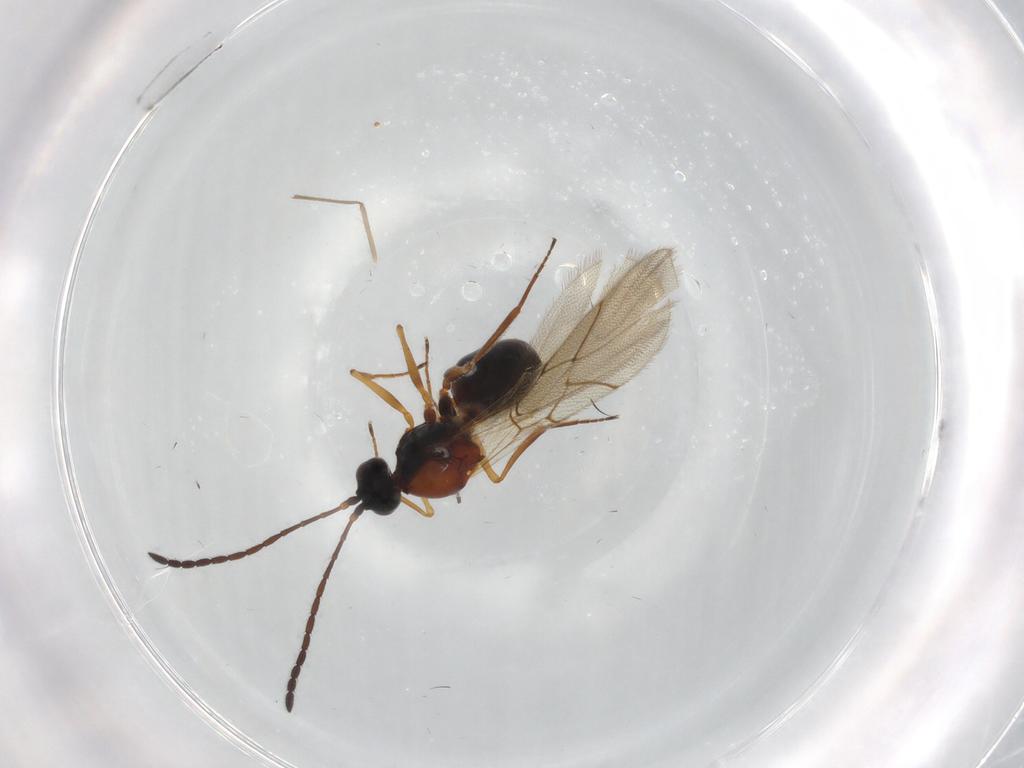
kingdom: Animalia
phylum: Arthropoda
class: Insecta
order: Hymenoptera
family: Figitidae
